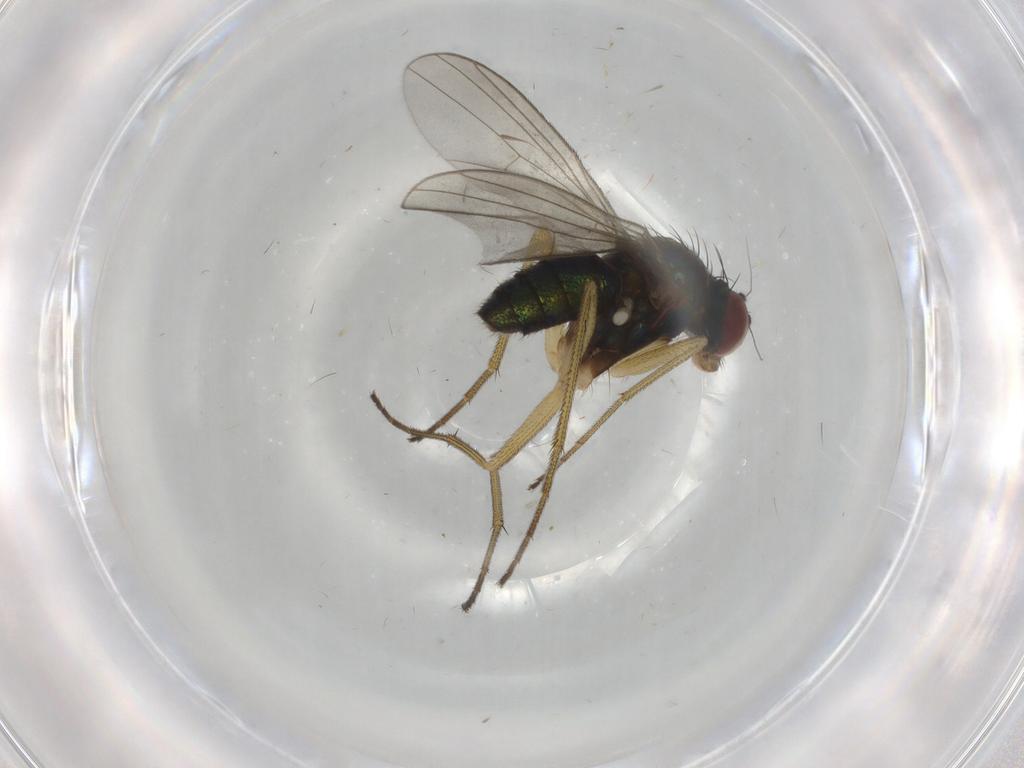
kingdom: Animalia
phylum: Arthropoda
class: Insecta
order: Diptera
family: Dolichopodidae
